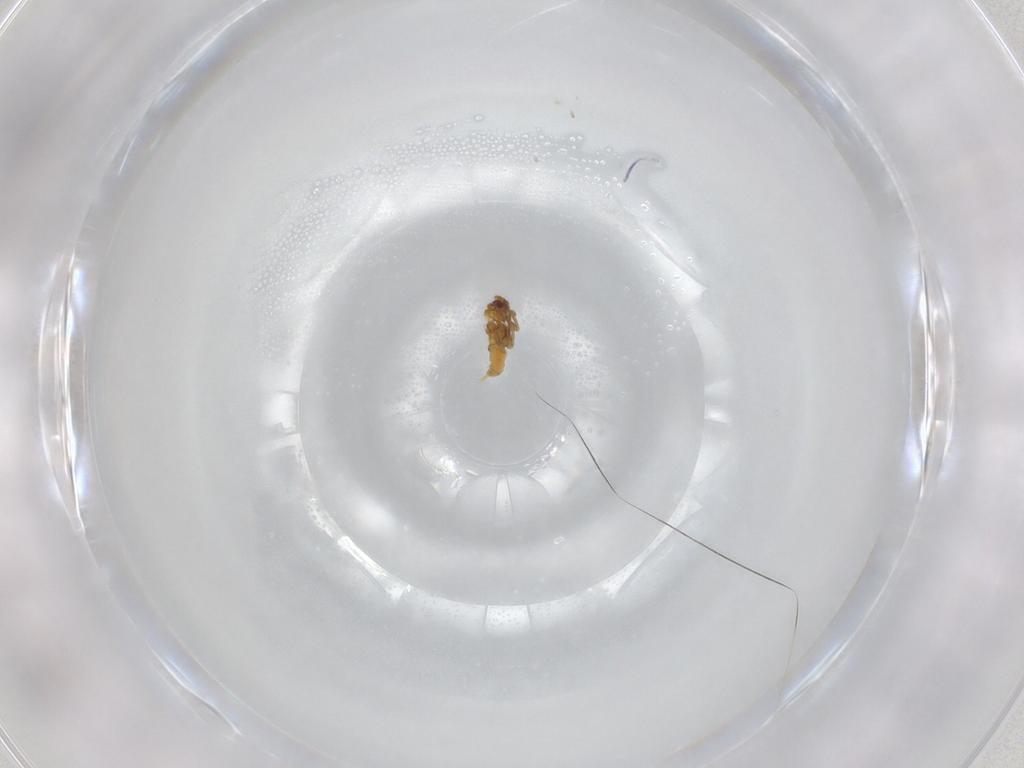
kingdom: Animalia
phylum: Arthropoda
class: Insecta
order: Hemiptera
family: Aleyrodidae
